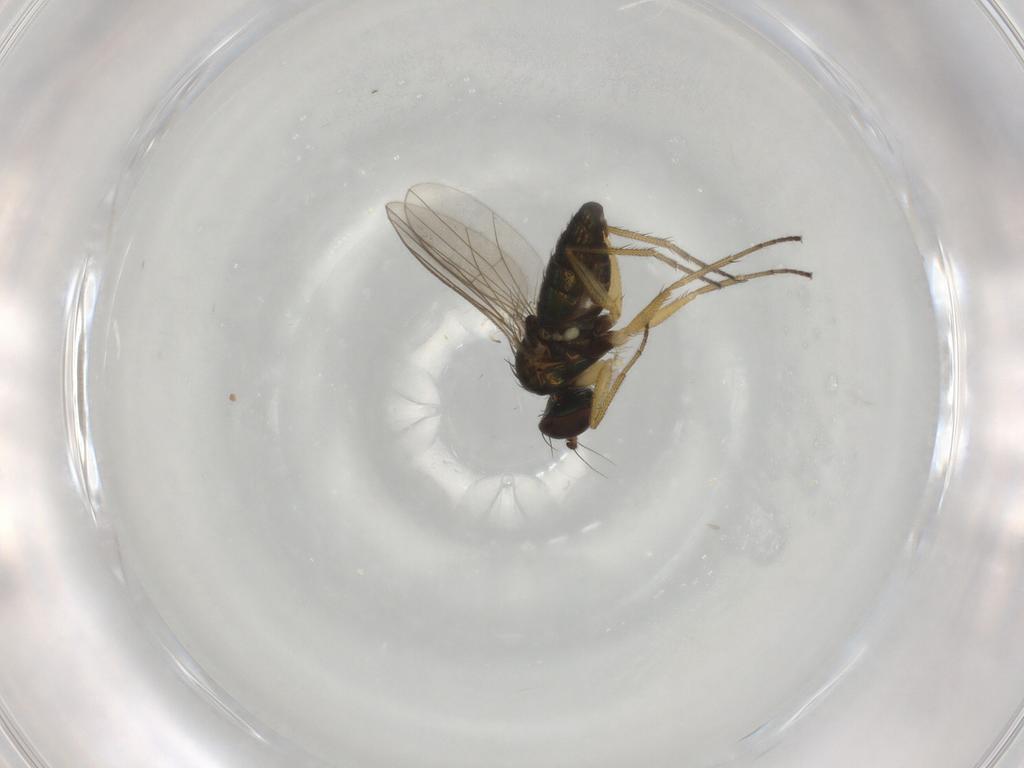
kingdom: Animalia
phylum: Arthropoda
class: Insecta
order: Diptera
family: Dolichopodidae
